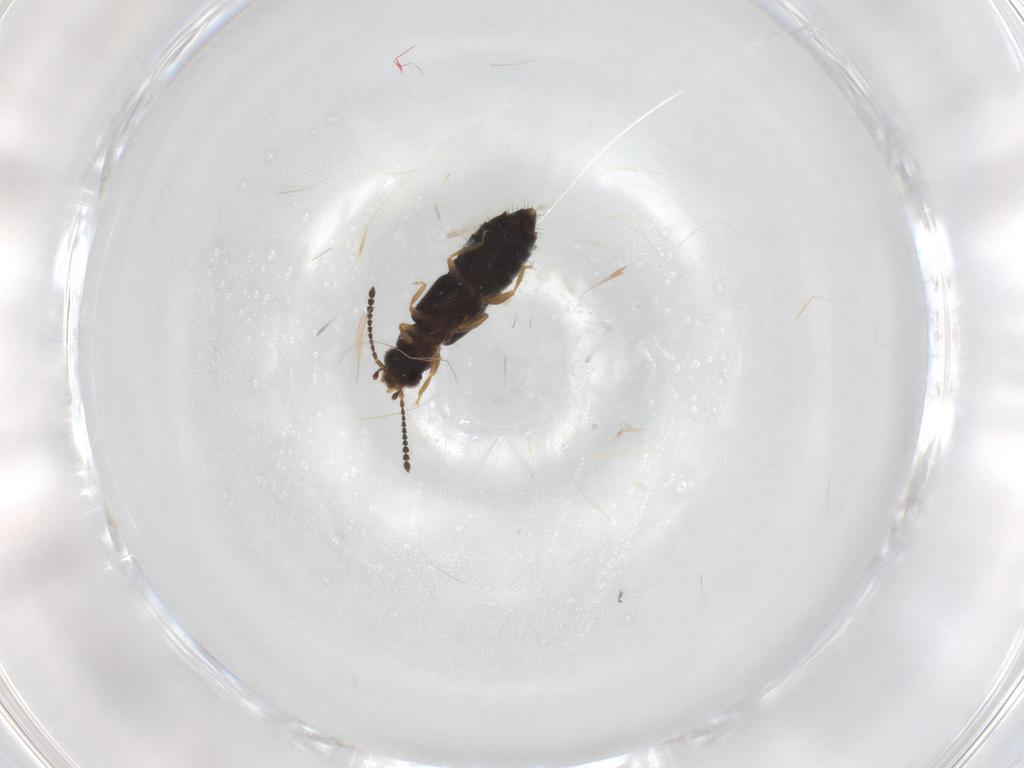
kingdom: Animalia
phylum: Arthropoda
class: Insecta
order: Coleoptera
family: Staphylinidae
